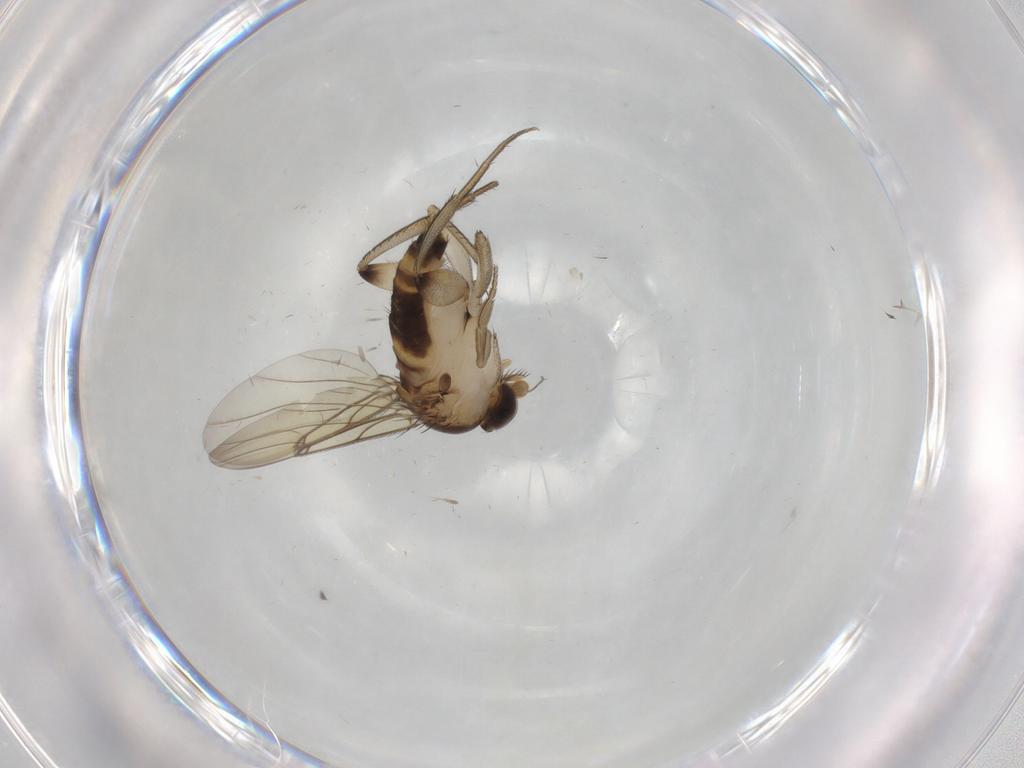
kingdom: Animalia
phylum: Arthropoda
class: Insecta
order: Diptera
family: Phoridae
